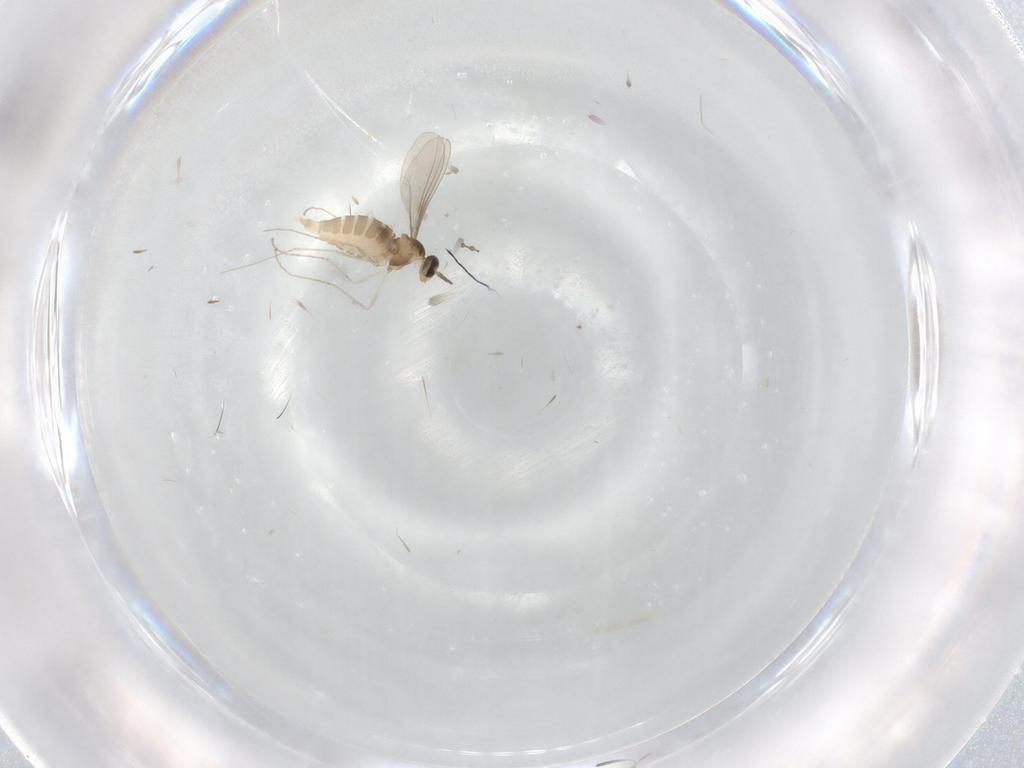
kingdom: Animalia
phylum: Arthropoda
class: Insecta
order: Diptera
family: Cecidomyiidae
